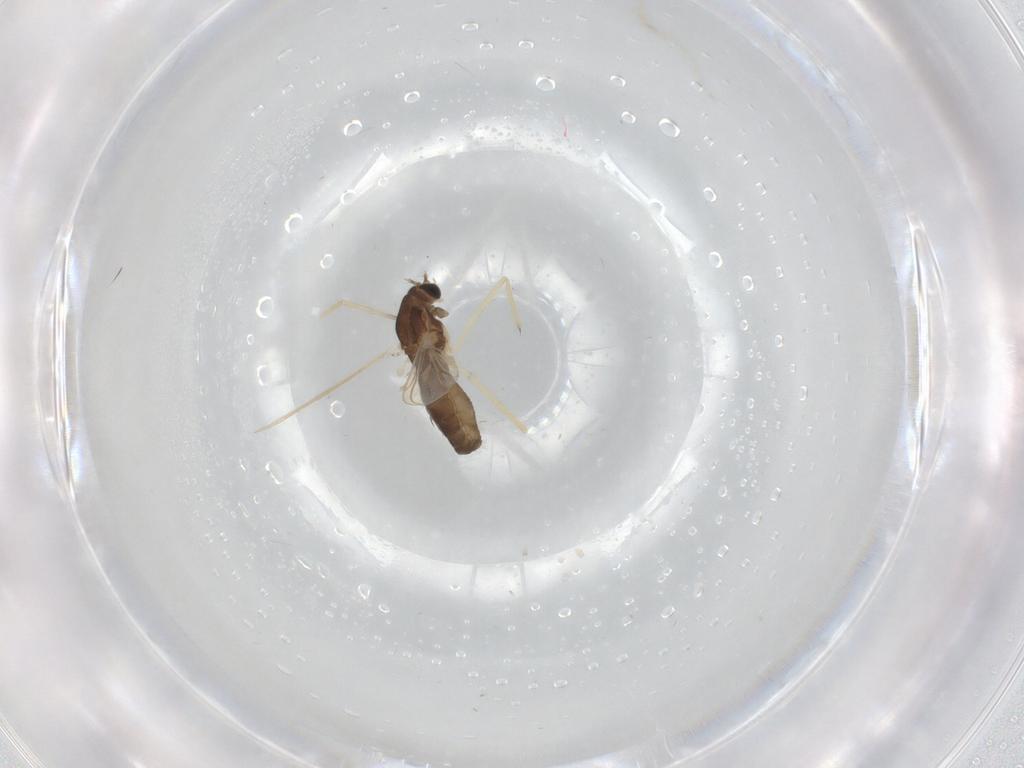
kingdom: Animalia
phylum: Arthropoda
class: Insecta
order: Diptera
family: Chironomidae
